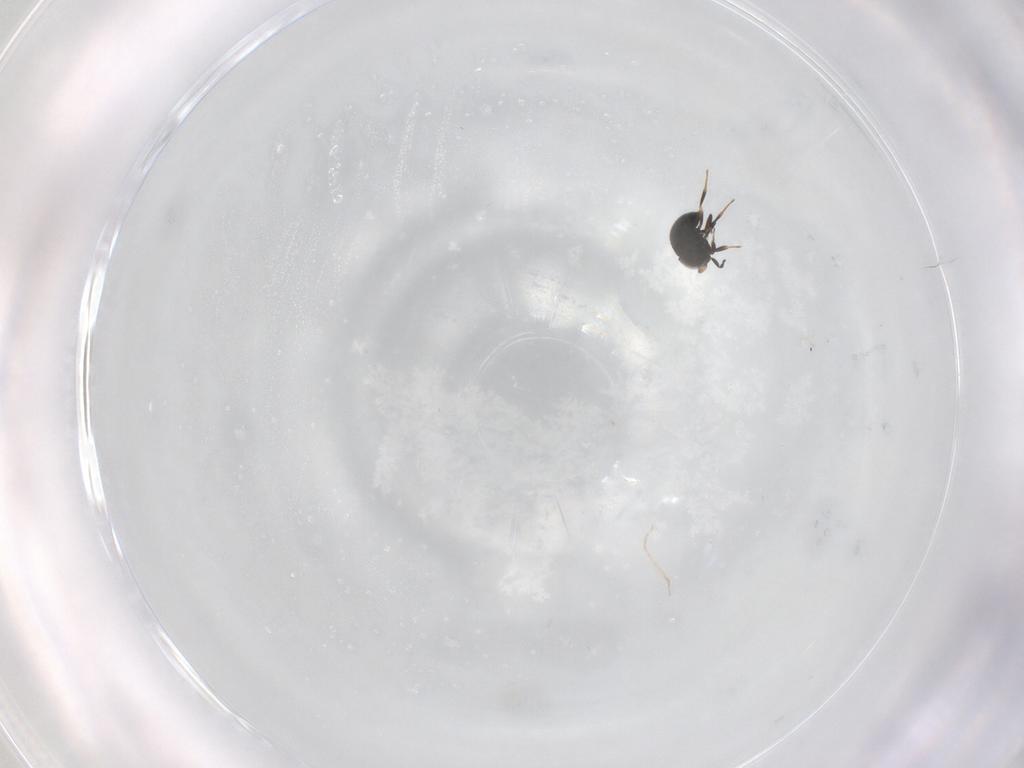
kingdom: Animalia
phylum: Arthropoda
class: Insecta
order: Hymenoptera
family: Scelionidae
